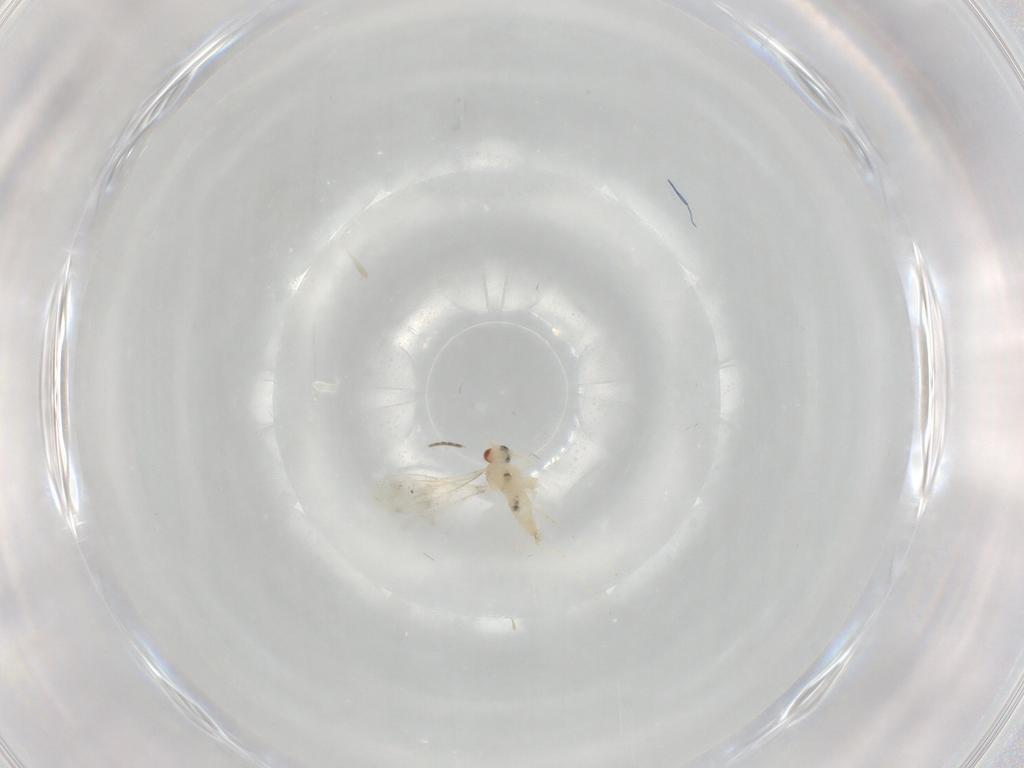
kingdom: Animalia
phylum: Arthropoda
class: Insecta
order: Diptera
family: Cecidomyiidae
